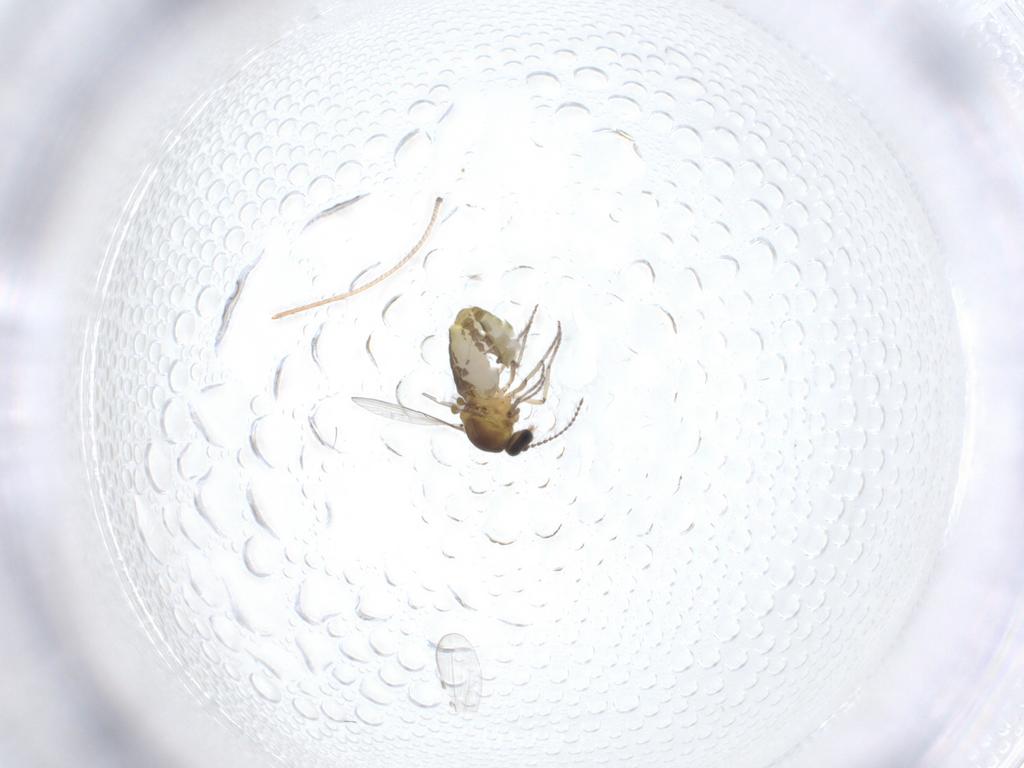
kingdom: Animalia
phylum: Arthropoda
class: Insecta
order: Diptera
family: Ceratopogonidae
